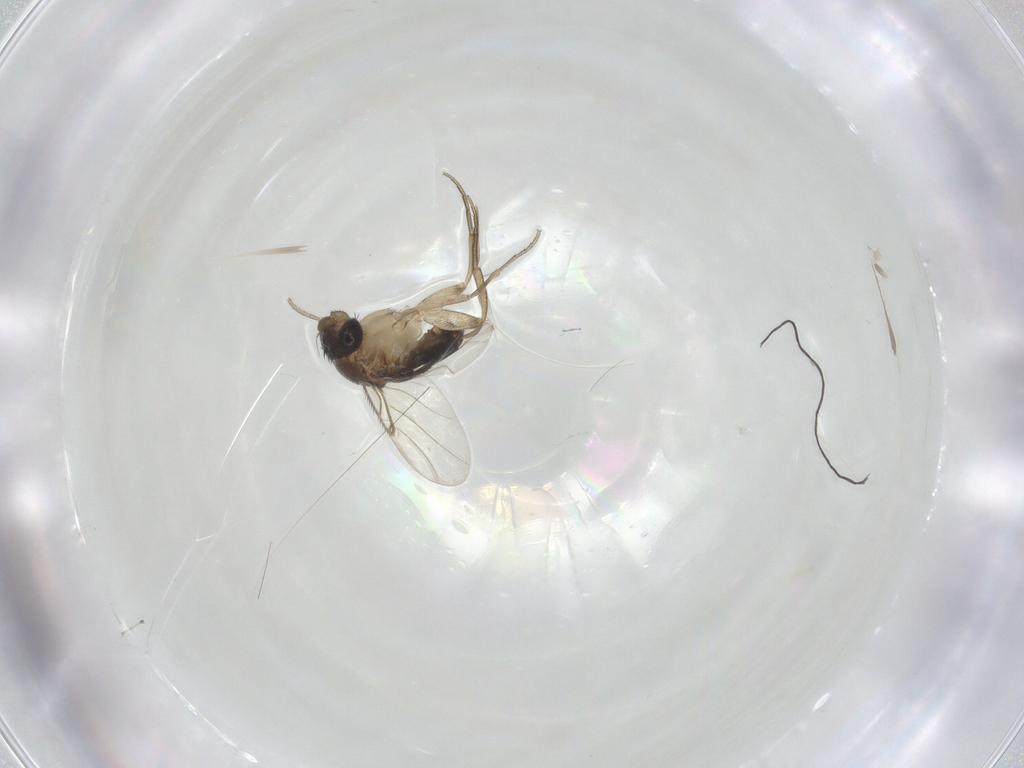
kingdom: Animalia
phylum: Arthropoda
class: Insecta
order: Diptera
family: Phoridae
